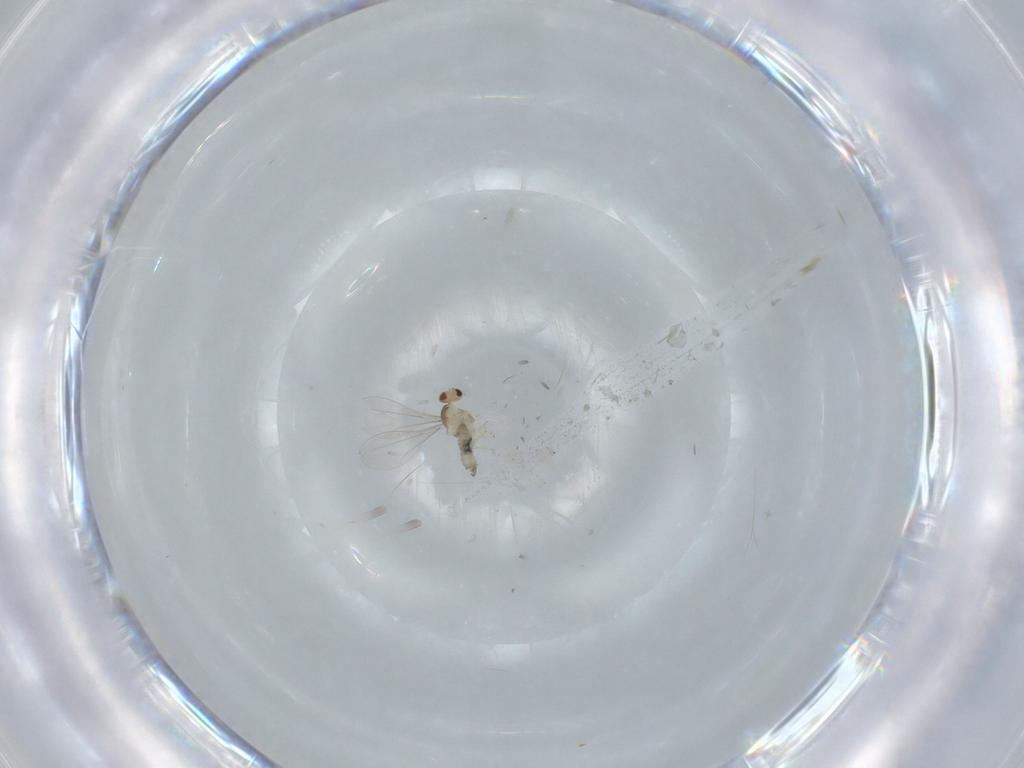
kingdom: Animalia
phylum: Arthropoda
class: Insecta
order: Diptera
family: Cecidomyiidae
